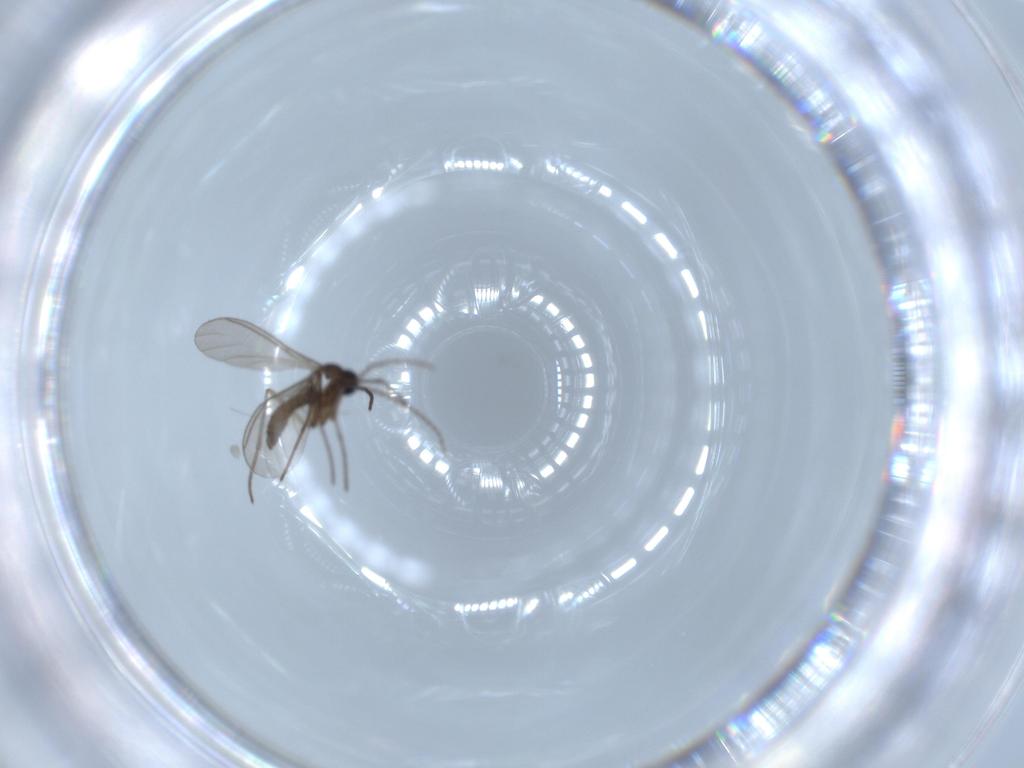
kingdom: Animalia
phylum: Arthropoda
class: Insecta
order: Diptera
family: Sciaridae
